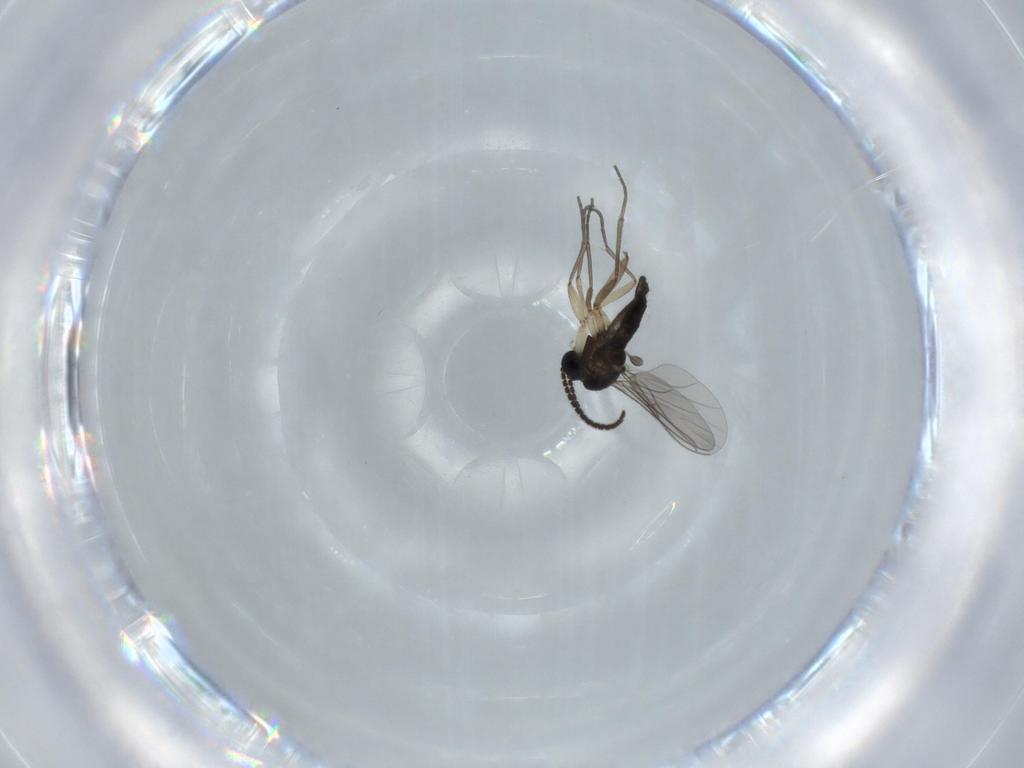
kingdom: Animalia
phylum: Arthropoda
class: Insecta
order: Diptera
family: Sciaridae
